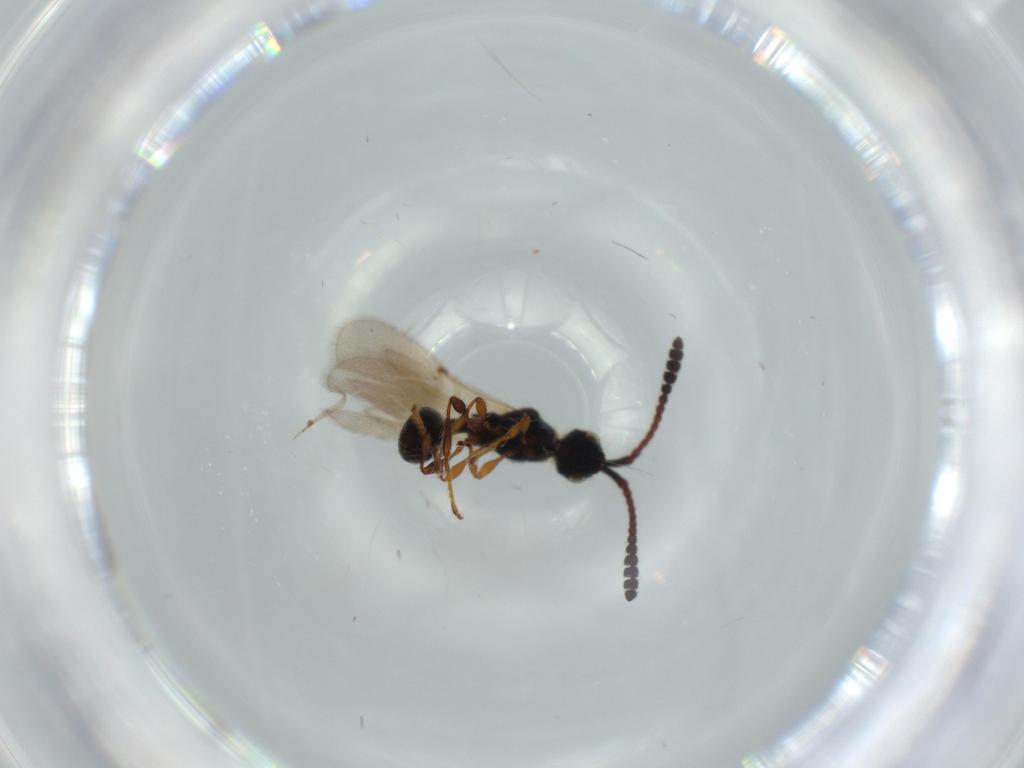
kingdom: Animalia
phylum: Arthropoda
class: Insecta
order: Hymenoptera
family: Diapriidae
